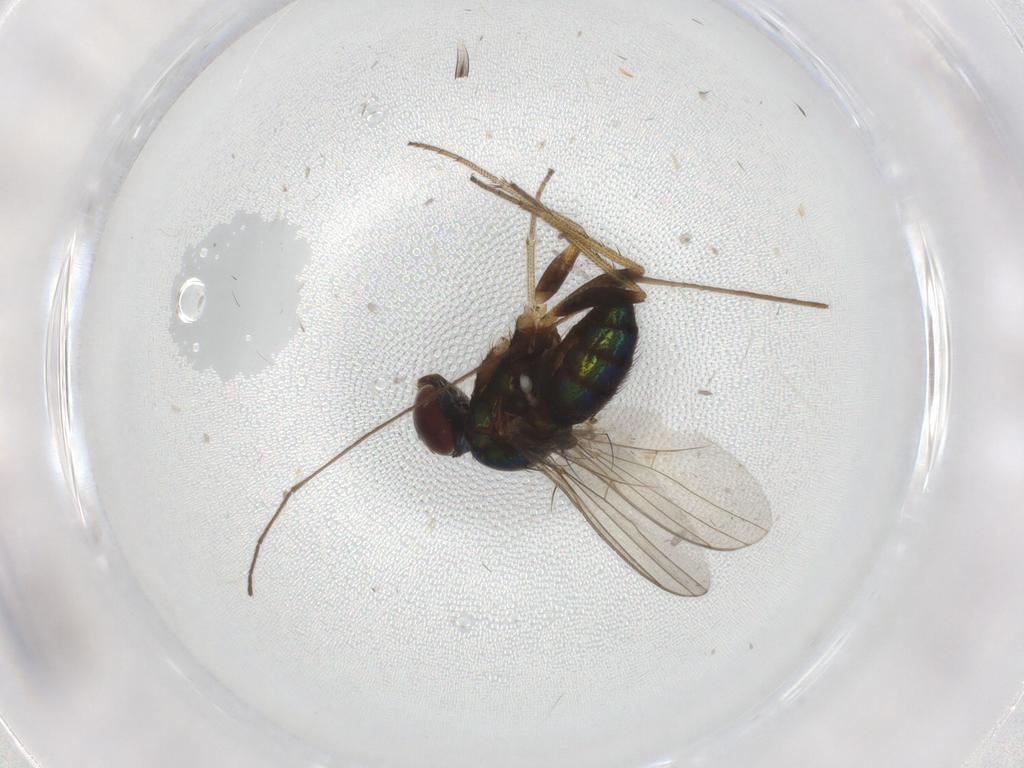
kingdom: Animalia
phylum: Arthropoda
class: Insecta
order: Diptera
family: Limoniidae
